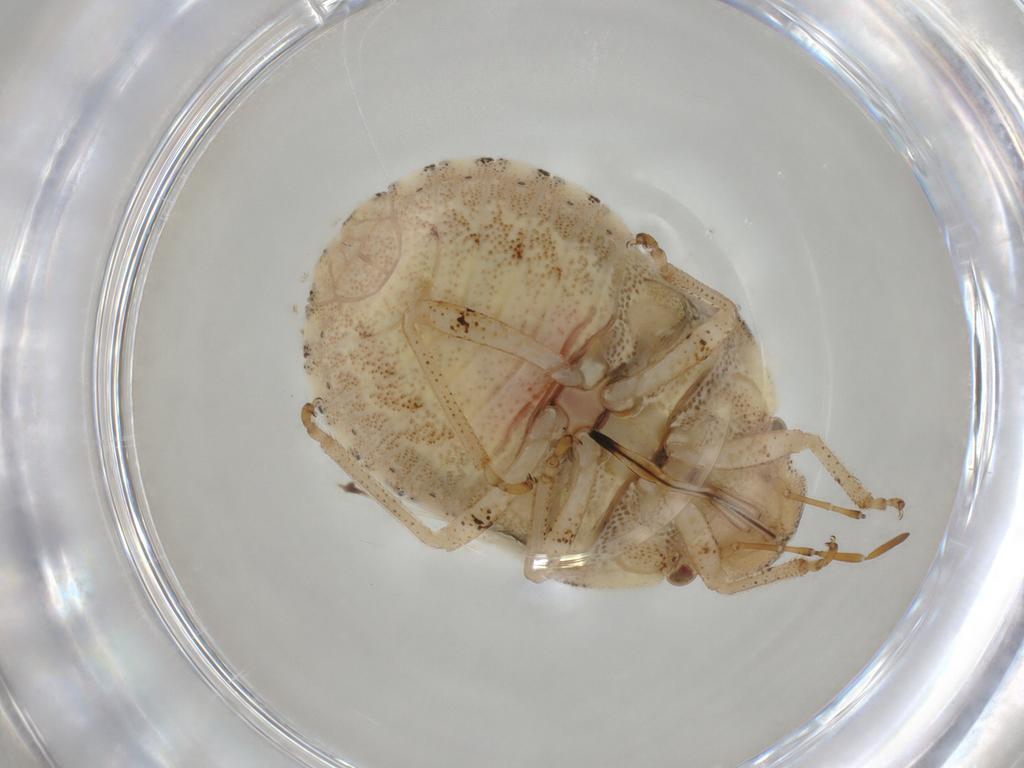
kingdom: Animalia
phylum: Arthropoda
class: Insecta
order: Hemiptera
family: Pentatomidae
